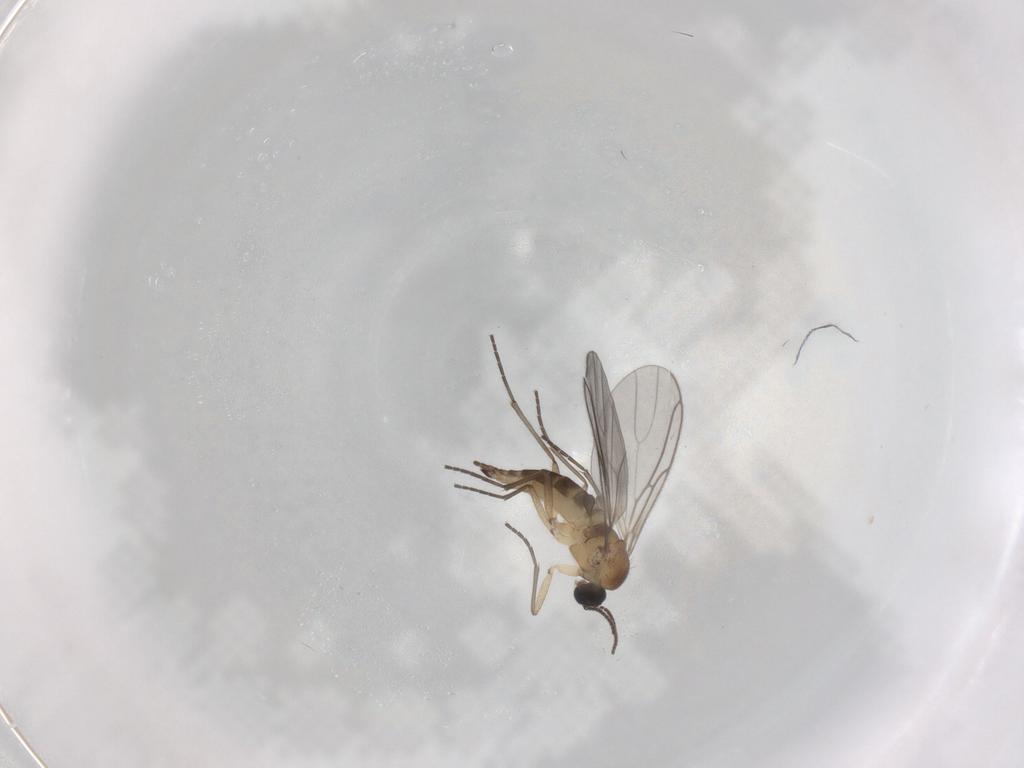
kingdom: Animalia
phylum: Arthropoda
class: Insecta
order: Diptera
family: Sciaridae
